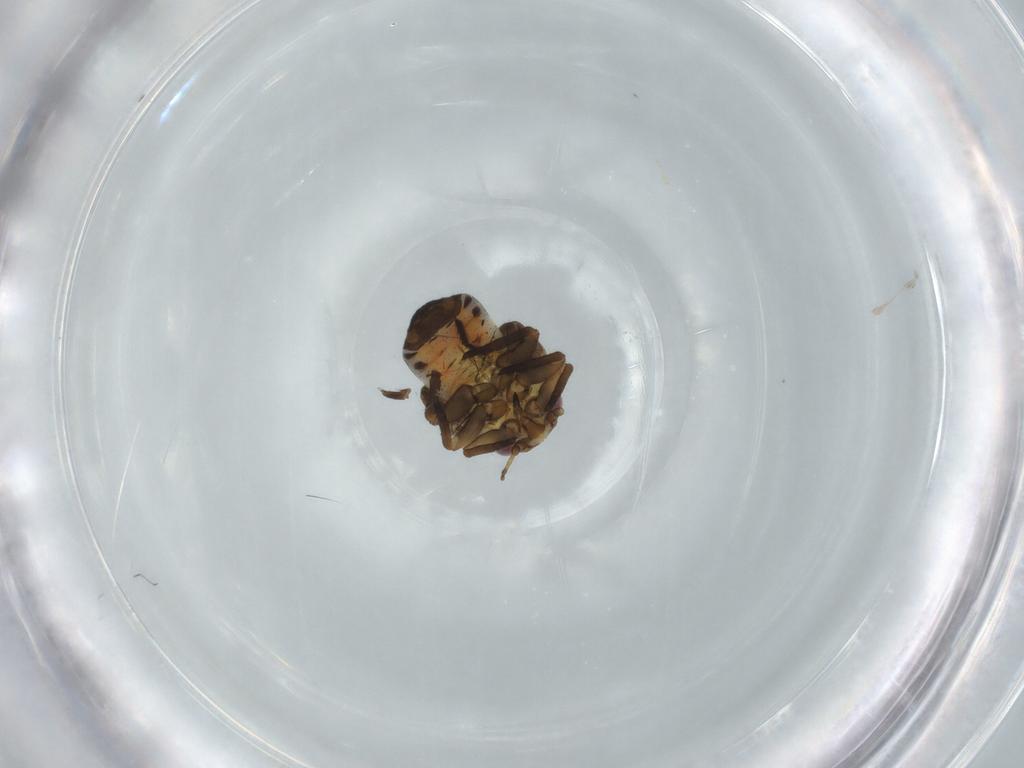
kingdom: Animalia
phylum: Arthropoda
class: Insecta
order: Hemiptera
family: Psyllidae
